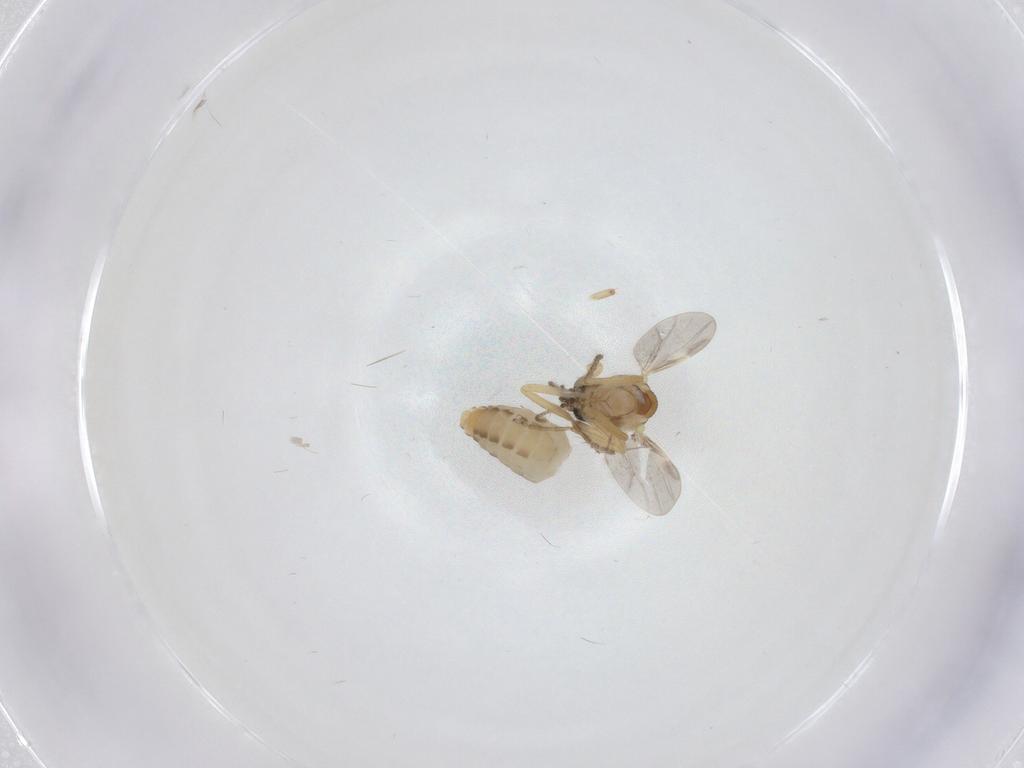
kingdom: Animalia
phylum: Arthropoda
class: Insecta
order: Diptera
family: Ceratopogonidae
